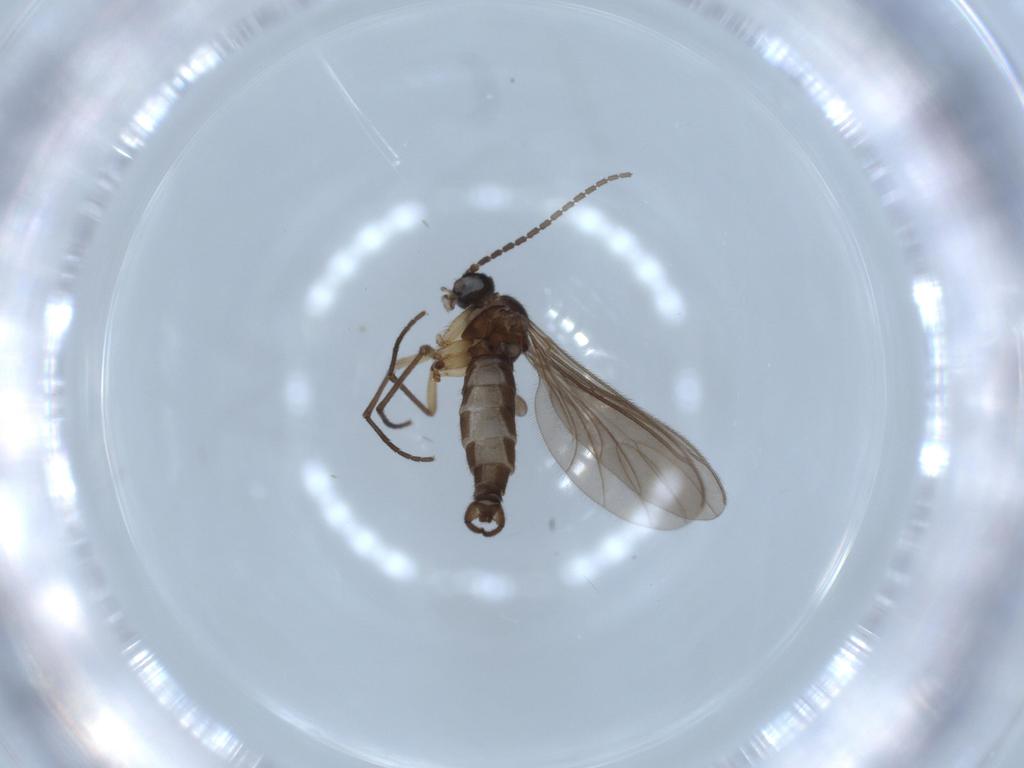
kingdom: Animalia
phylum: Arthropoda
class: Insecta
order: Diptera
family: Sciaridae
